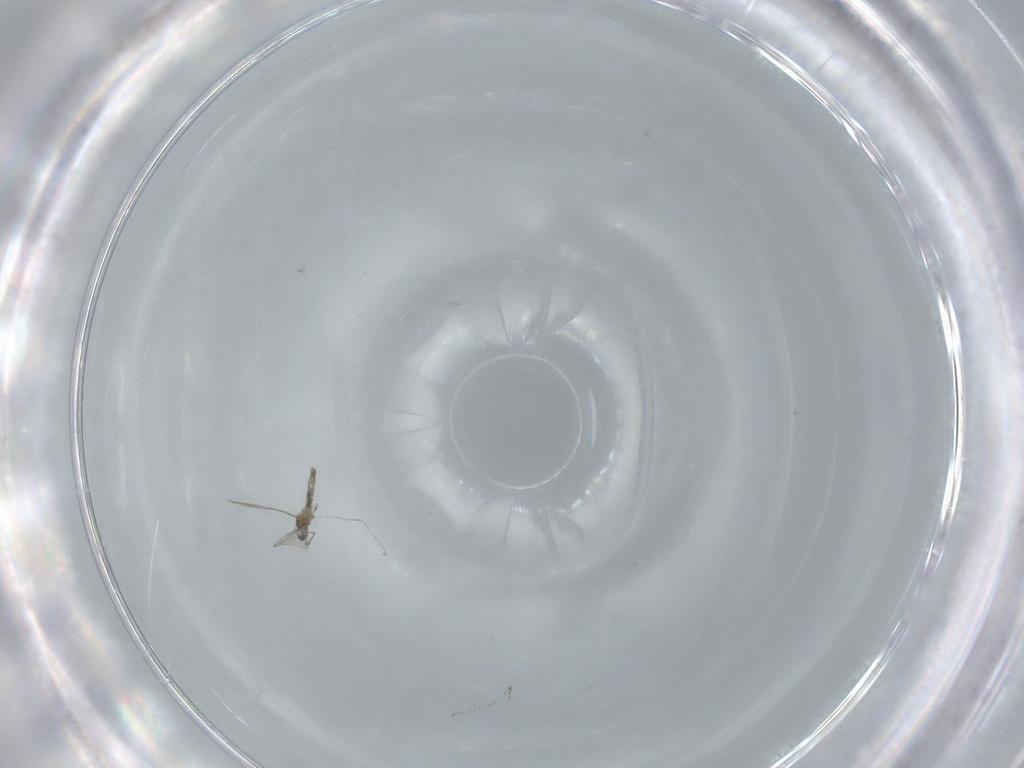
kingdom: Animalia
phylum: Arthropoda
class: Insecta
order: Diptera
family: Cecidomyiidae
